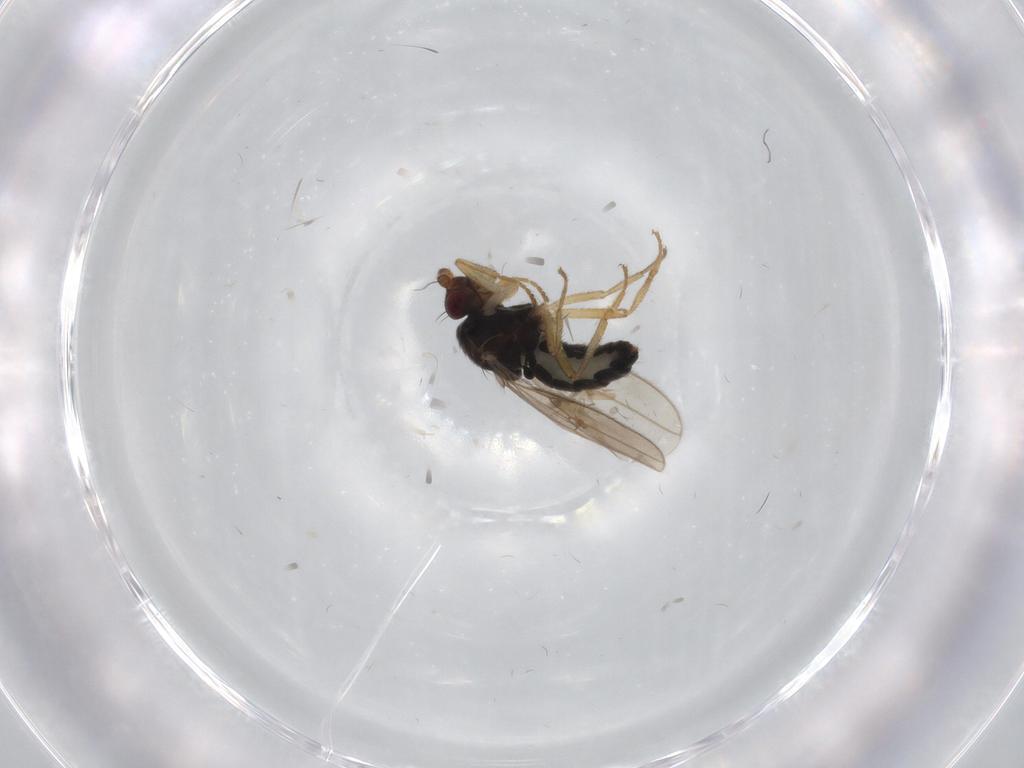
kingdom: Animalia
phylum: Arthropoda
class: Insecta
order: Diptera
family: Sphaeroceridae
